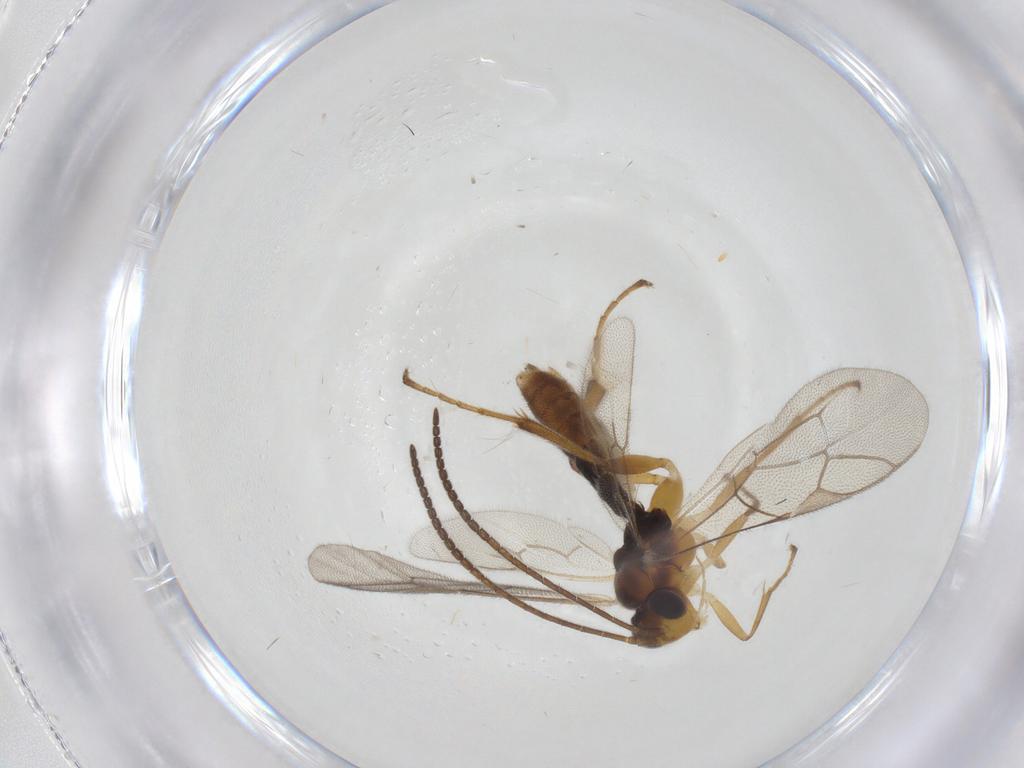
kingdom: Animalia
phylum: Arthropoda
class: Insecta
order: Hymenoptera
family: Ichneumonidae
